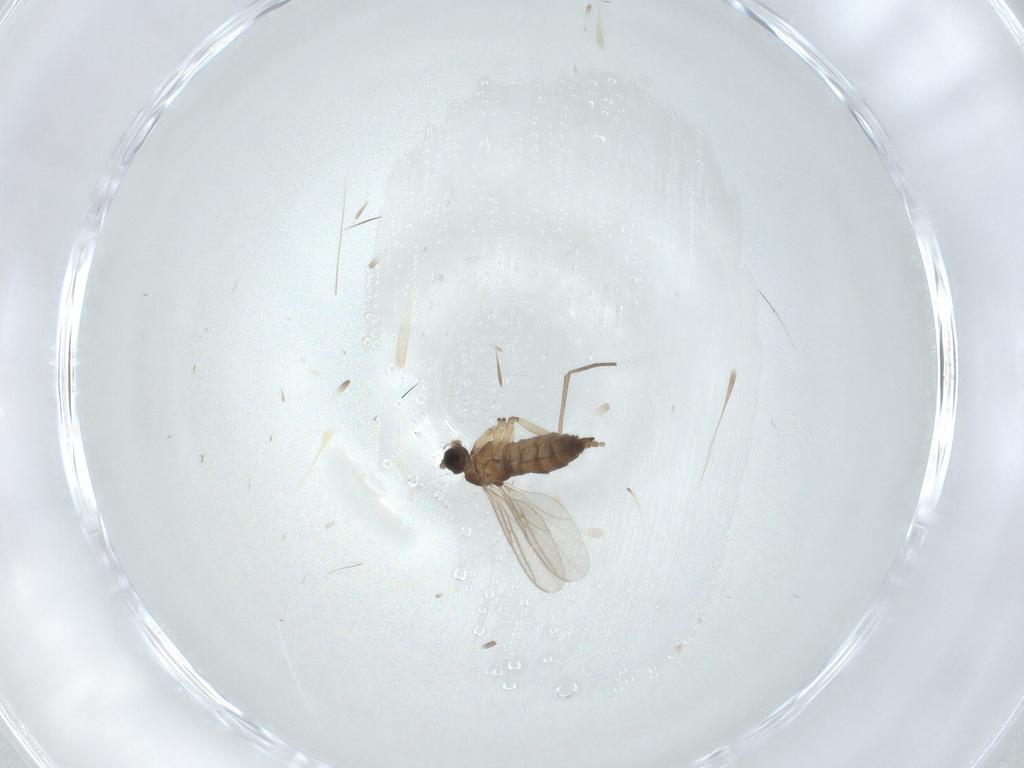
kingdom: Animalia
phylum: Arthropoda
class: Insecta
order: Diptera
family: Sciaridae
